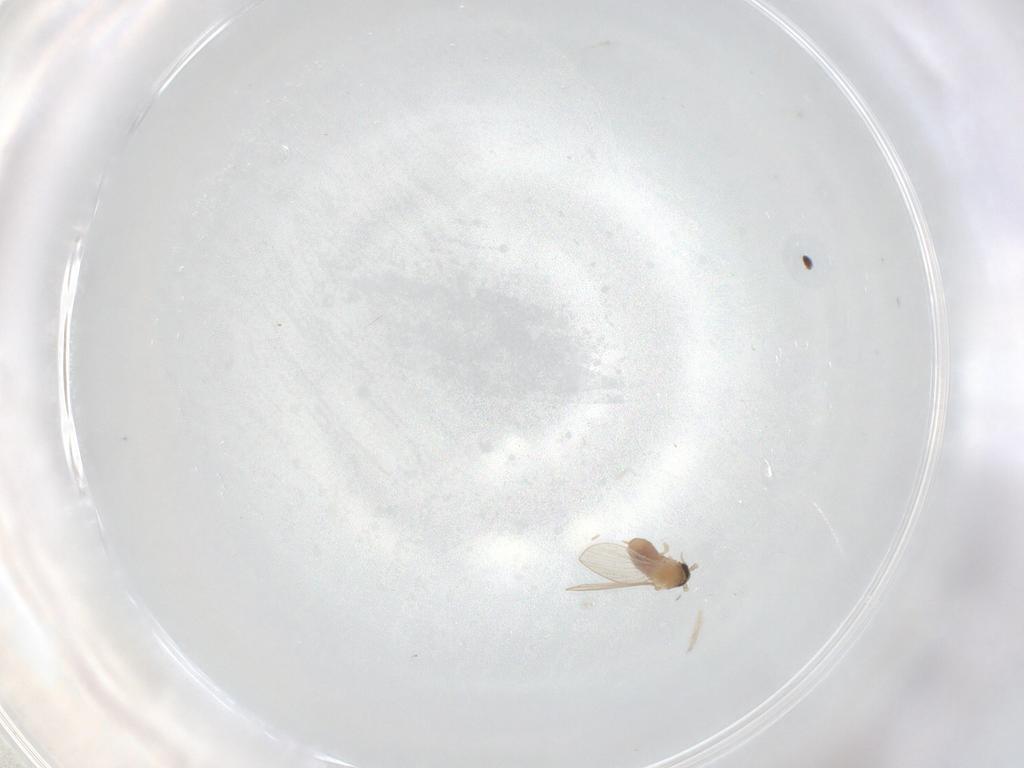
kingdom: Animalia
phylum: Arthropoda
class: Insecta
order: Diptera
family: Psychodidae
